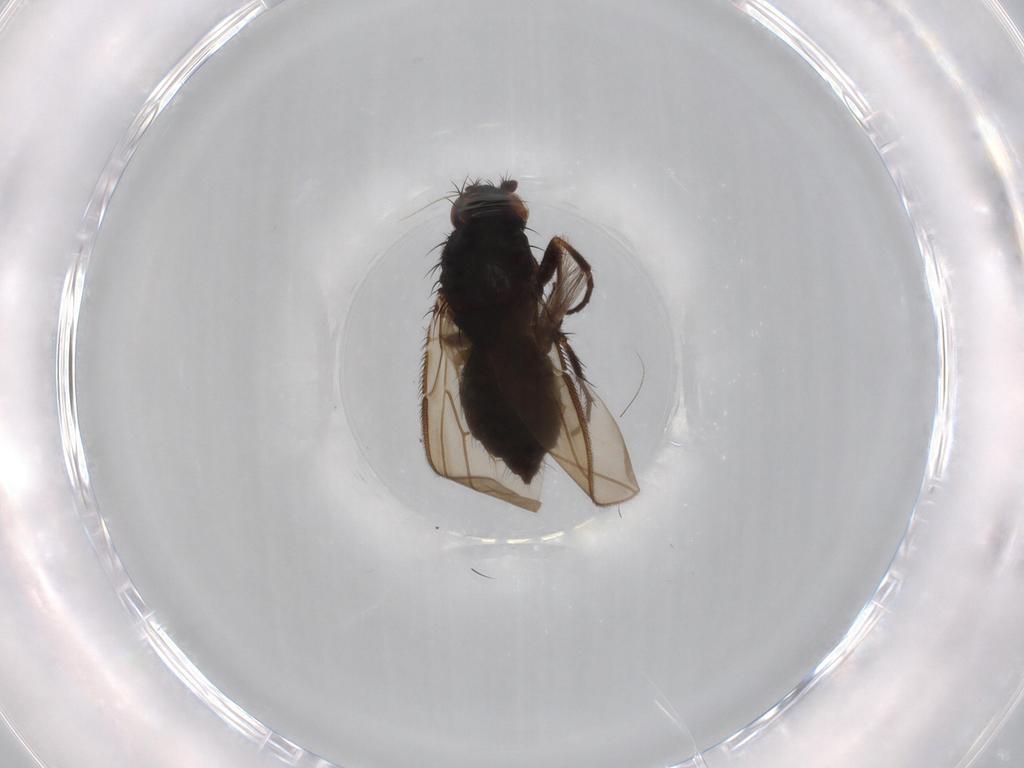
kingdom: Animalia
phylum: Arthropoda
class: Insecta
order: Diptera
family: Sphaeroceridae
